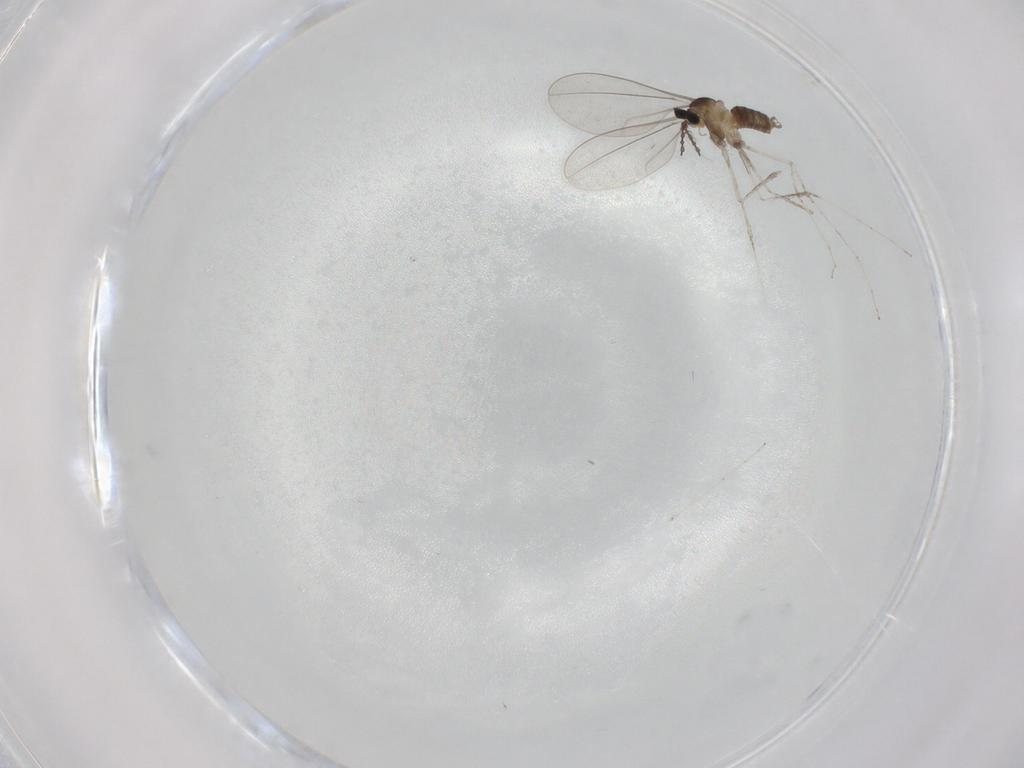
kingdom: Animalia
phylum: Arthropoda
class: Insecta
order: Diptera
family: Cecidomyiidae
